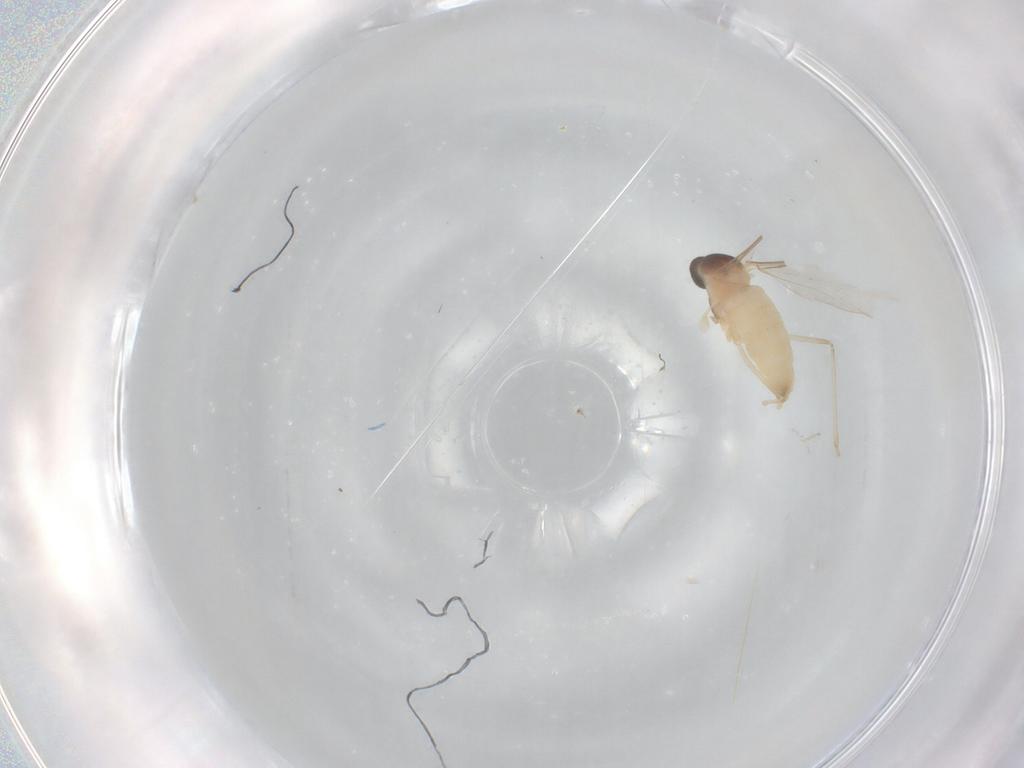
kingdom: Animalia
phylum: Arthropoda
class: Insecta
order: Diptera
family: Cecidomyiidae
